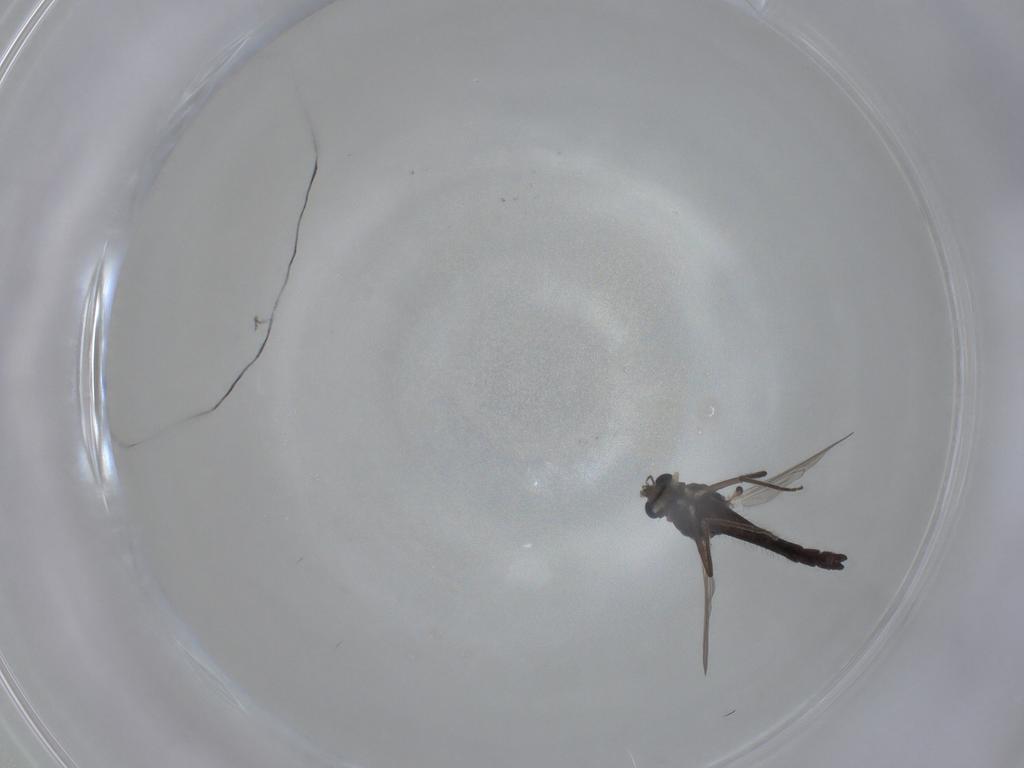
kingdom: Animalia
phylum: Arthropoda
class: Insecta
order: Diptera
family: Chironomidae
